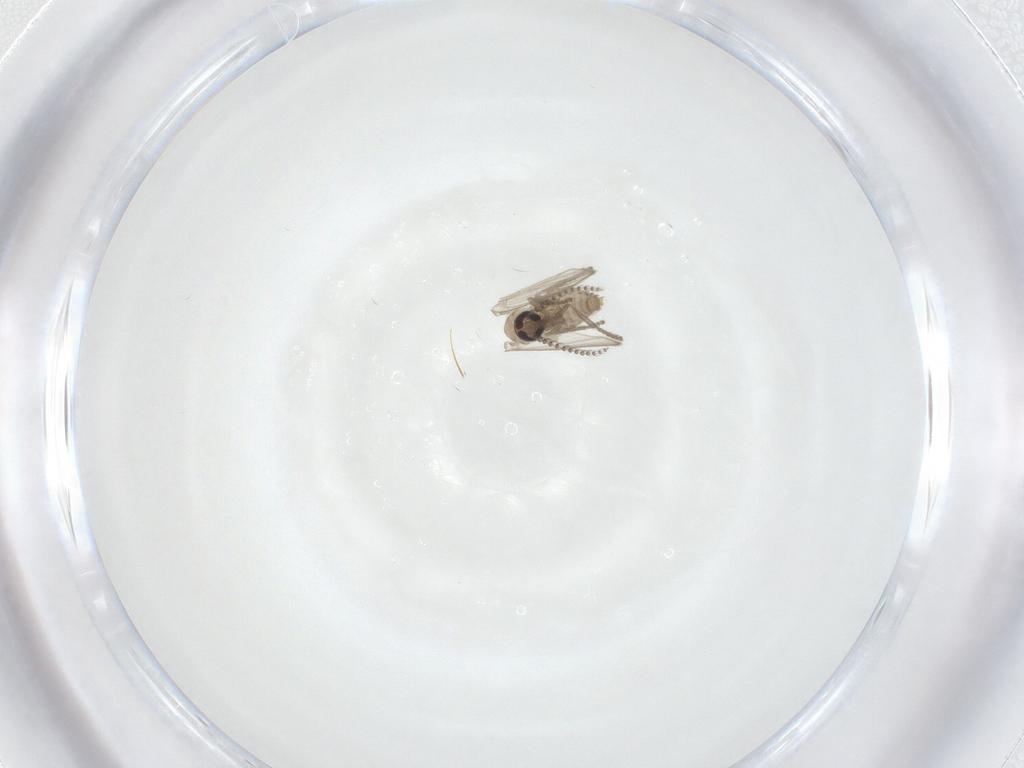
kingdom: Animalia
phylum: Arthropoda
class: Insecta
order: Diptera
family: Psychodidae
